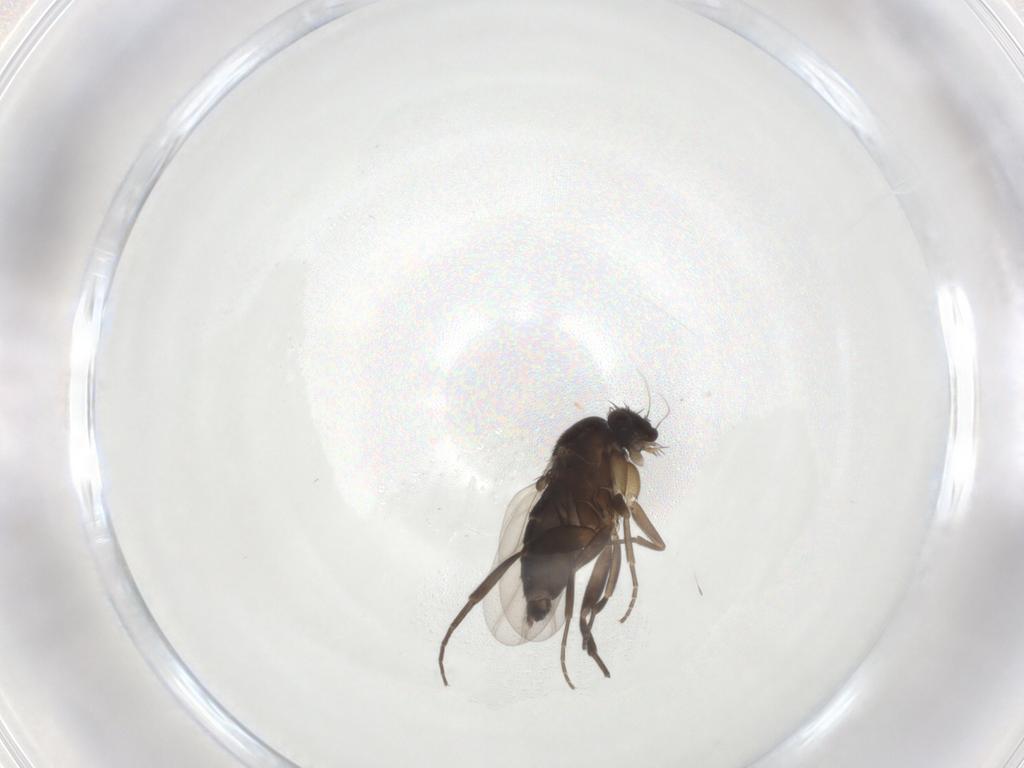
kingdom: Animalia
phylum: Arthropoda
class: Insecta
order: Diptera
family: Phoridae
